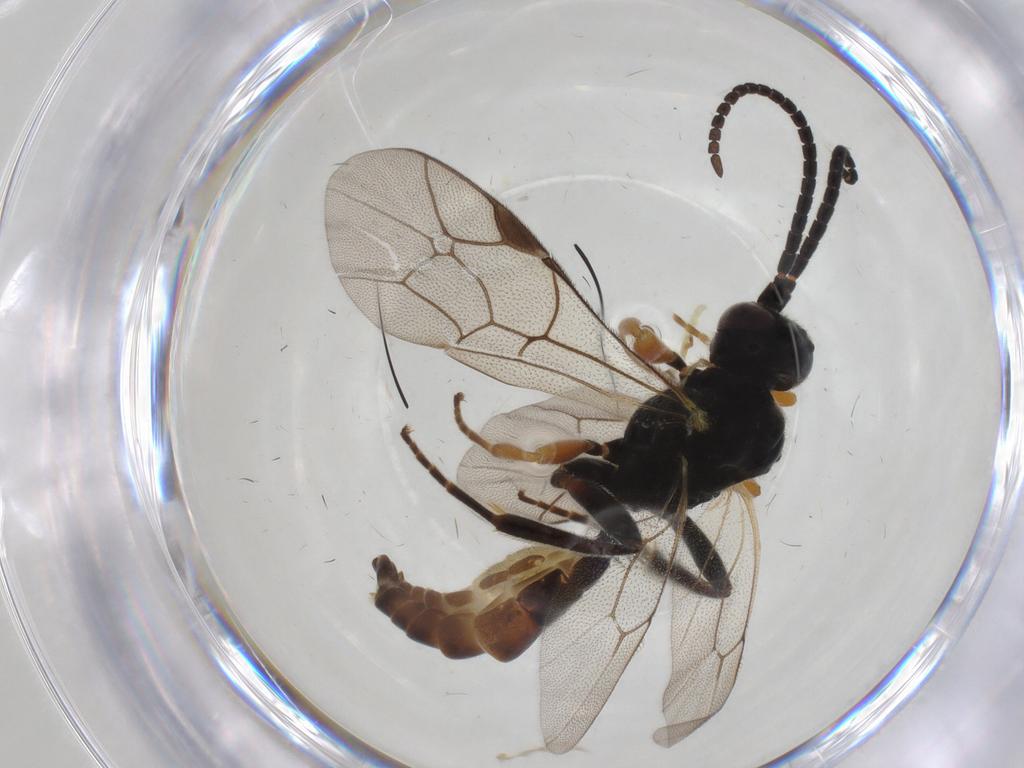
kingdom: Animalia
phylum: Arthropoda
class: Insecta
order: Hymenoptera
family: Ichneumonidae
